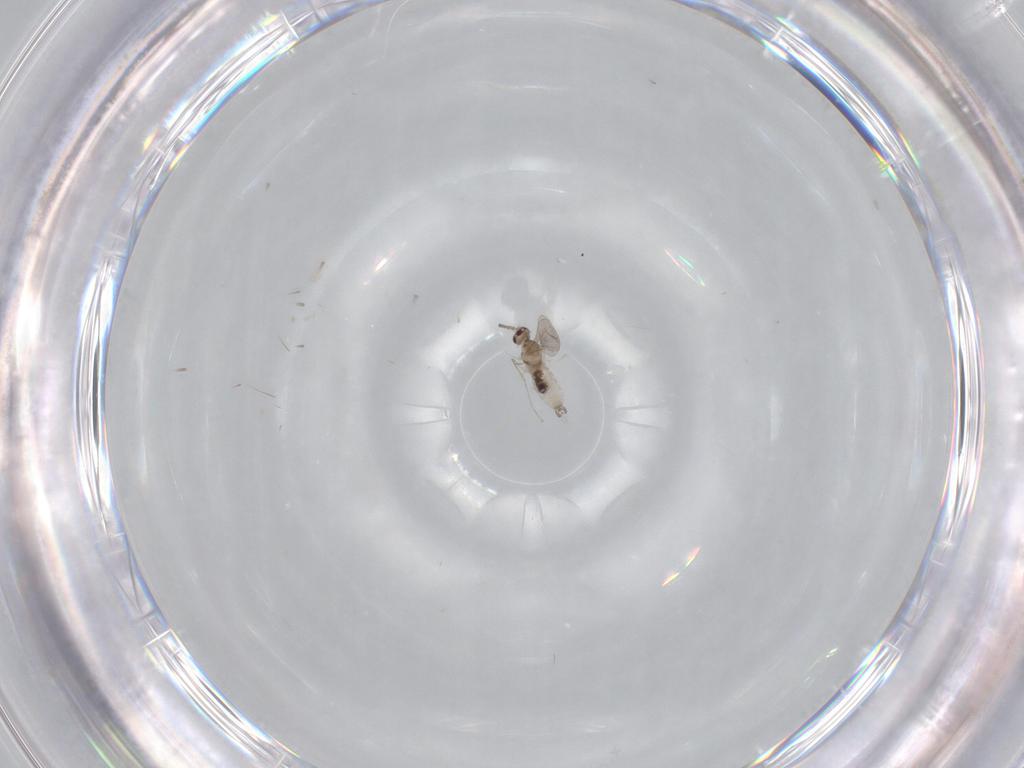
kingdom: Animalia
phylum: Arthropoda
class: Insecta
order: Diptera
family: Cecidomyiidae
